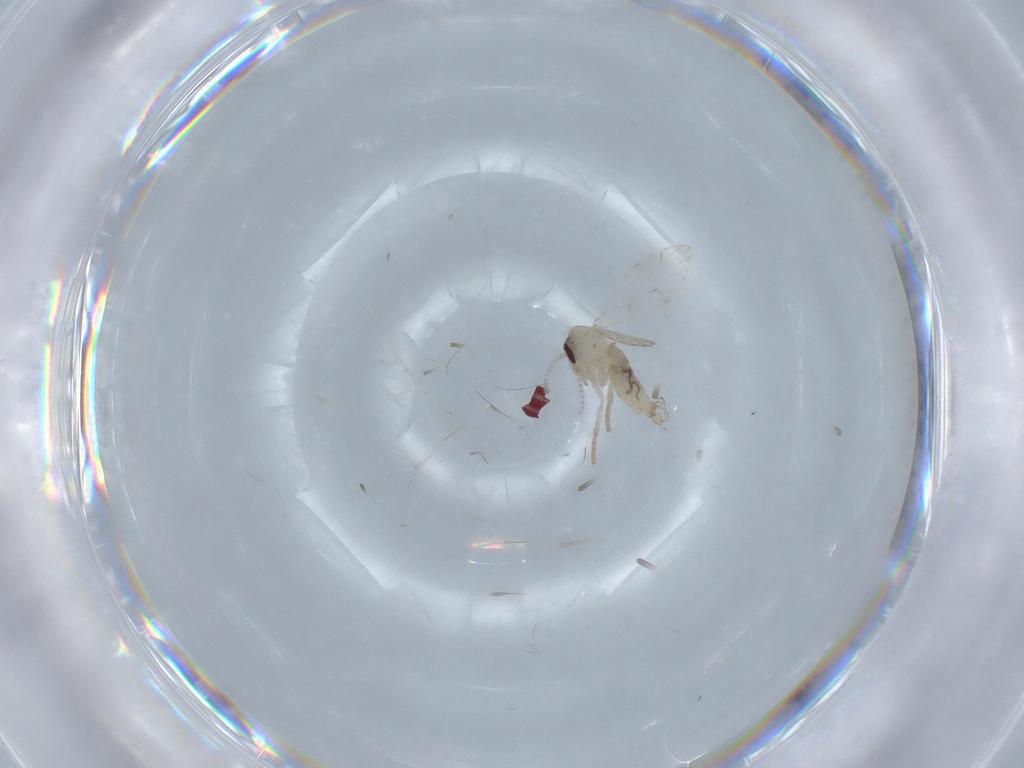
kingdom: Animalia
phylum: Arthropoda
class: Insecta
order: Diptera
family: Psychodidae
